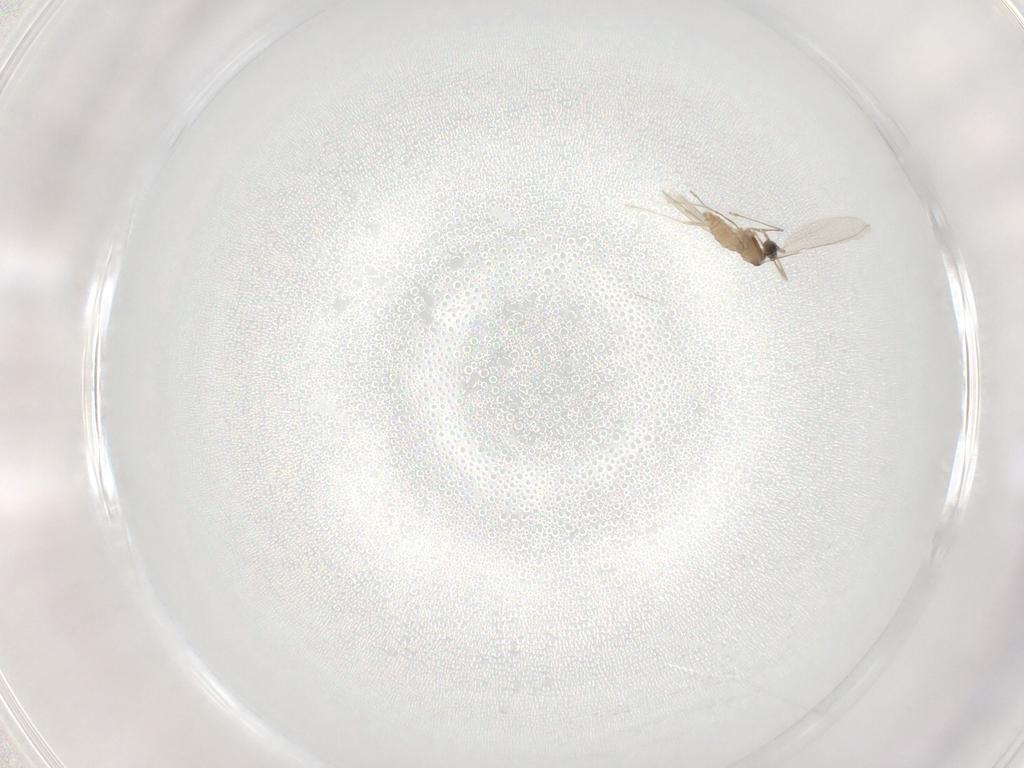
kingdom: Animalia
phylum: Arthropoda
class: Insecta
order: Diptera
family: Cecidomyiidae
